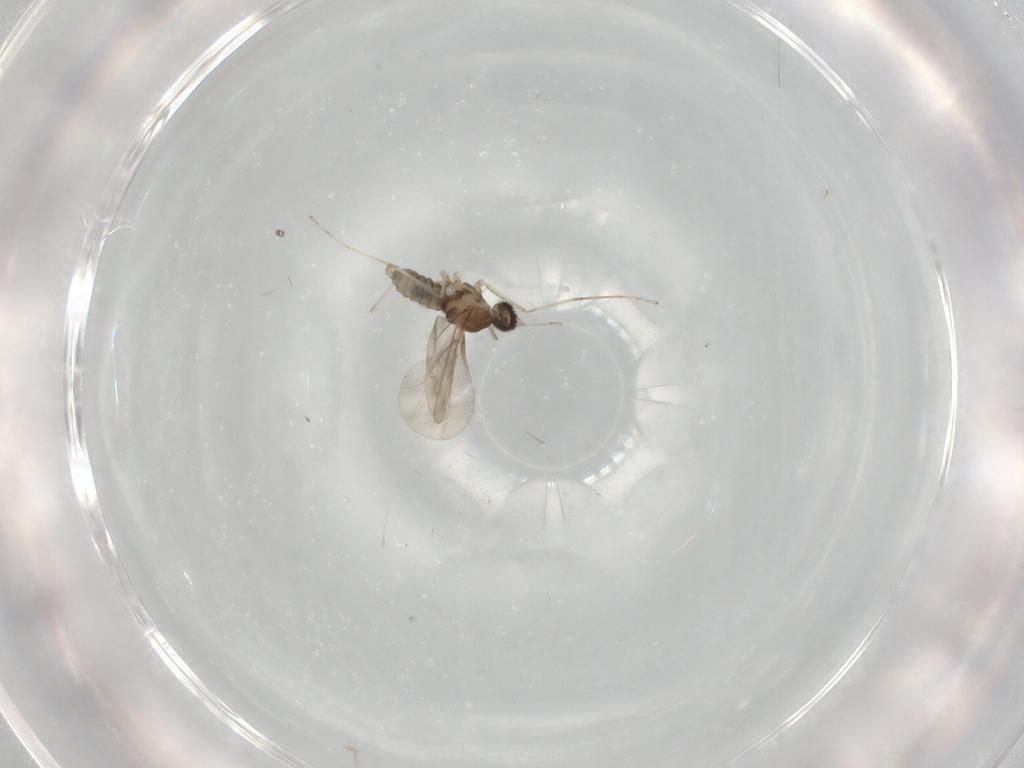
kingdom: Animalia
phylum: Arthropoda
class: Insecta
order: Diptera
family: Cecidomyiidae
